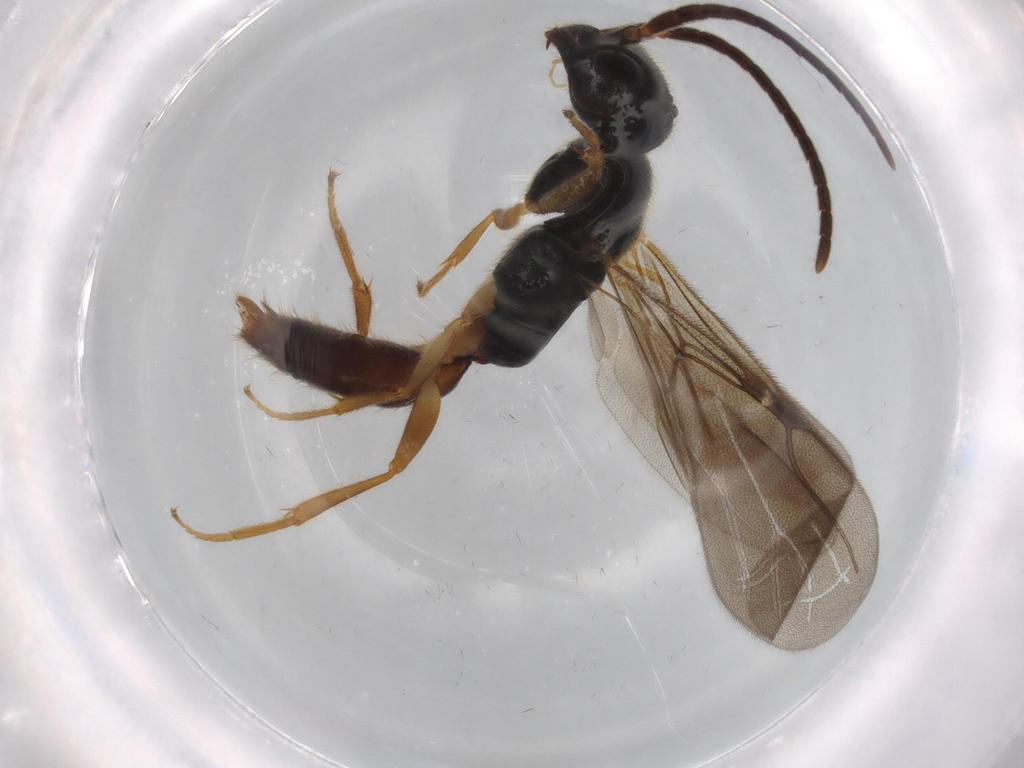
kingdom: Animalia
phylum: Arthropoda
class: Insecta
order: Hymenoptera
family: Bethylidae
